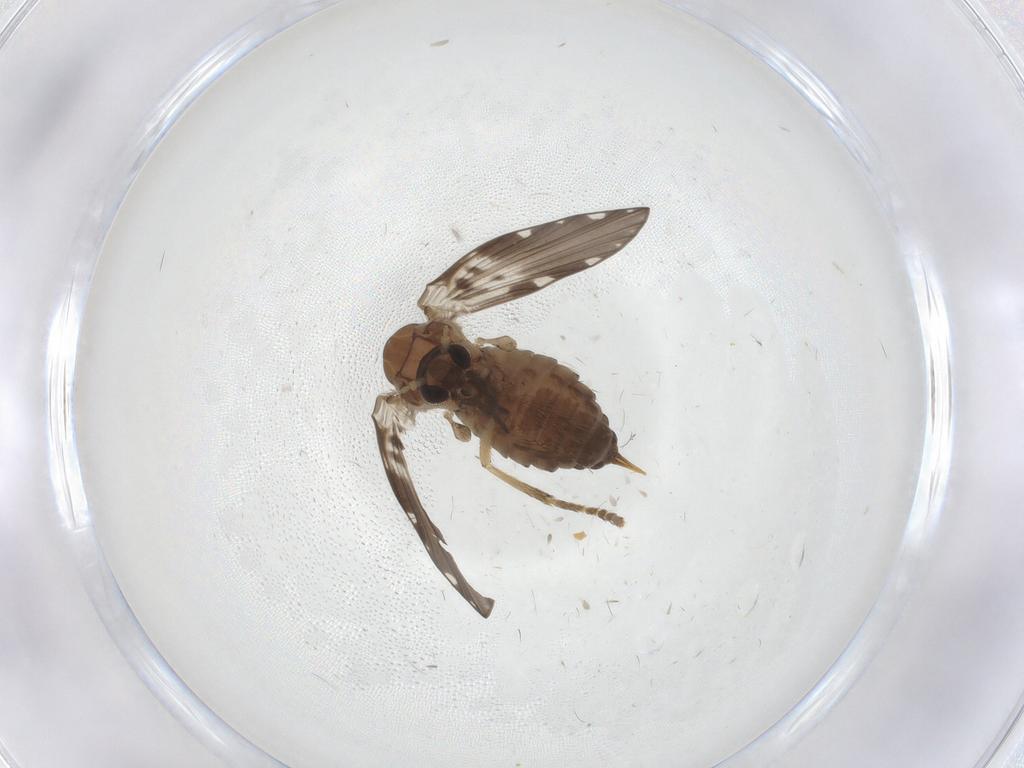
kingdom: Animalia
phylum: Arthropoda
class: Insecta
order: Diptera
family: Psychodidae
